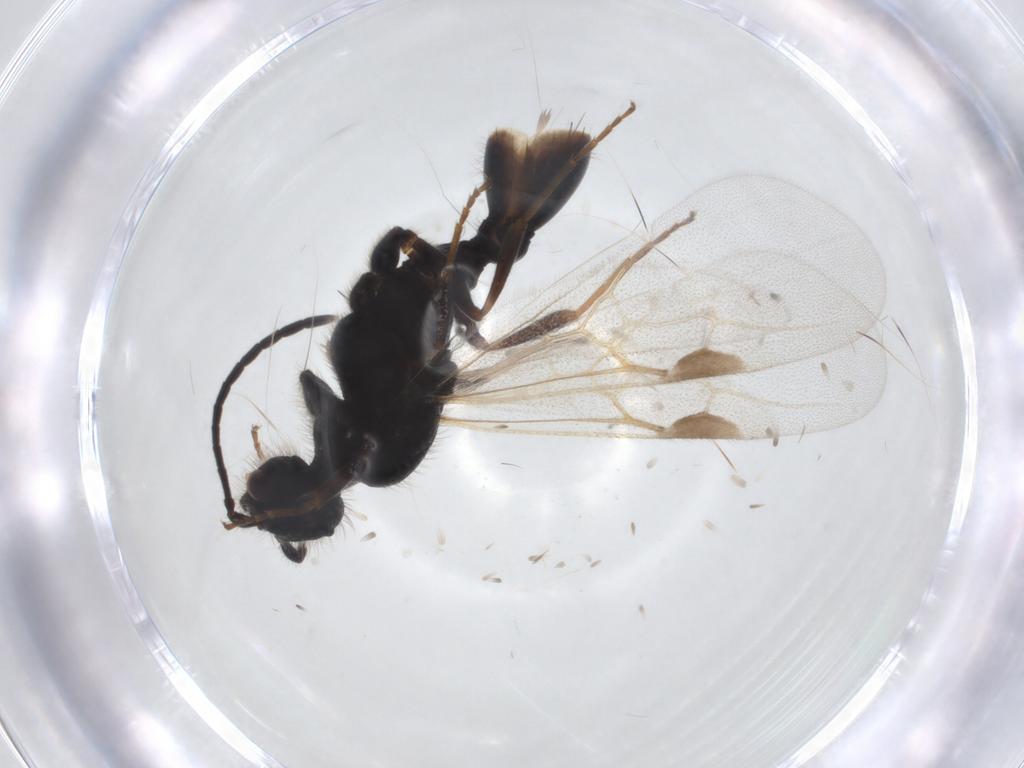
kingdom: Animalia
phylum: Arthropoda
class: Insecta
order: Hymenoptera
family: Formicidae
